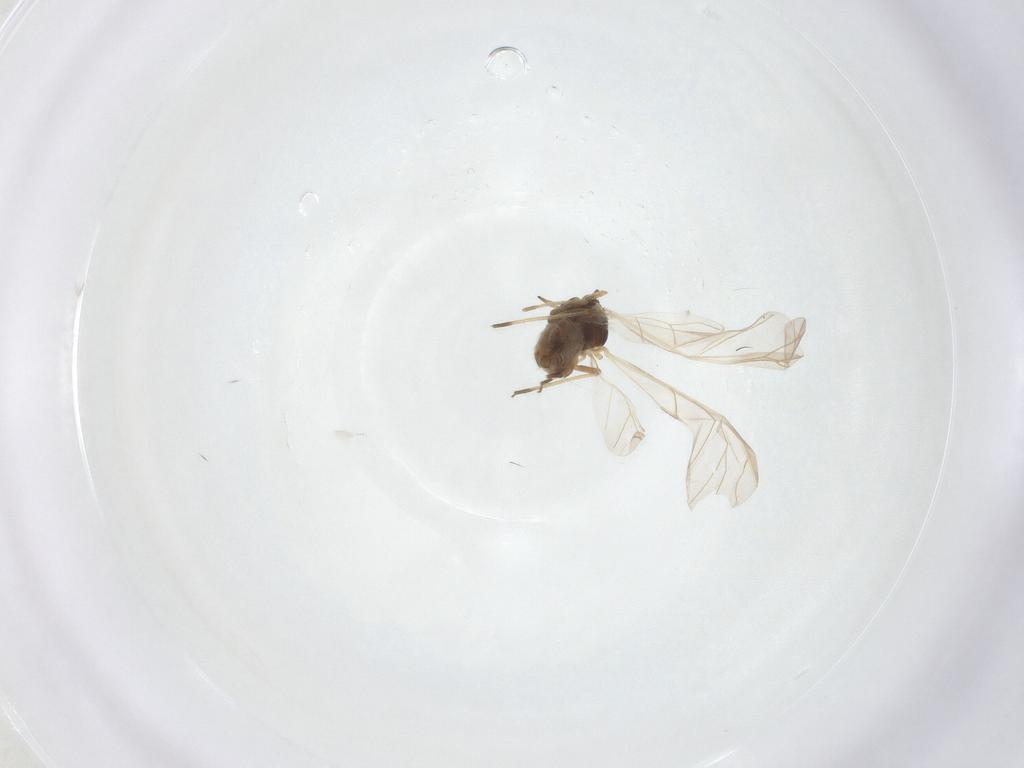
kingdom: Animalia
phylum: Arthropoda
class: Insecta
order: Hemiptera
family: Aphididae
